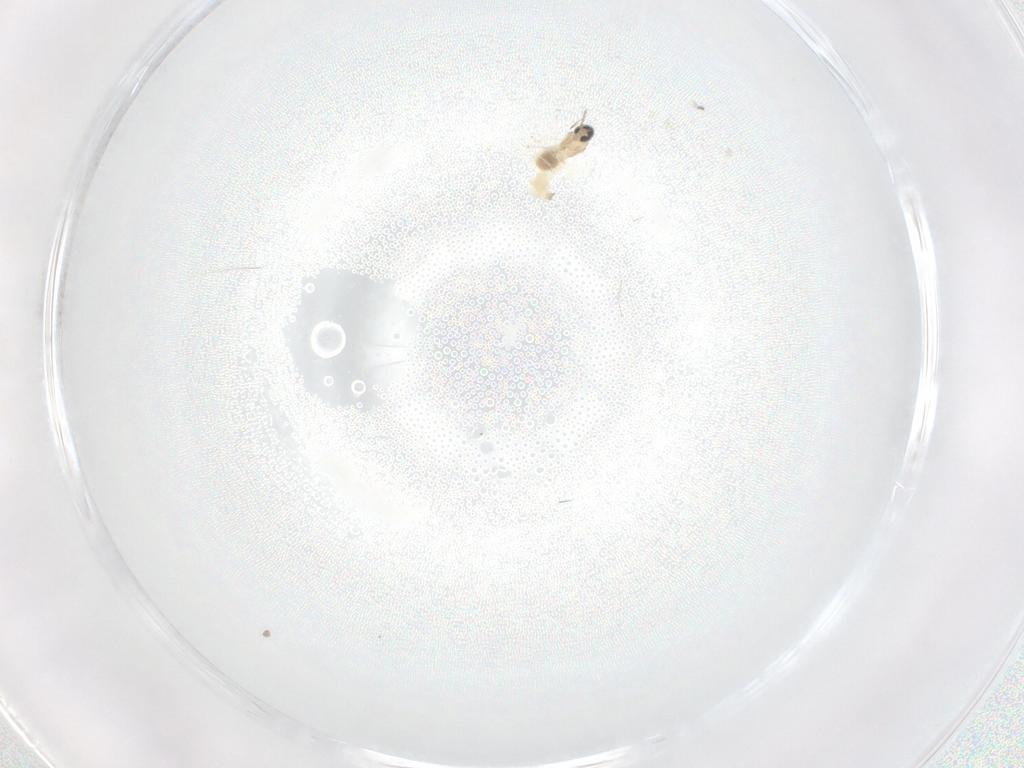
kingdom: Animalia
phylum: Arthropoda
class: Insecta
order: Diptera
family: Cecidomyiidae
